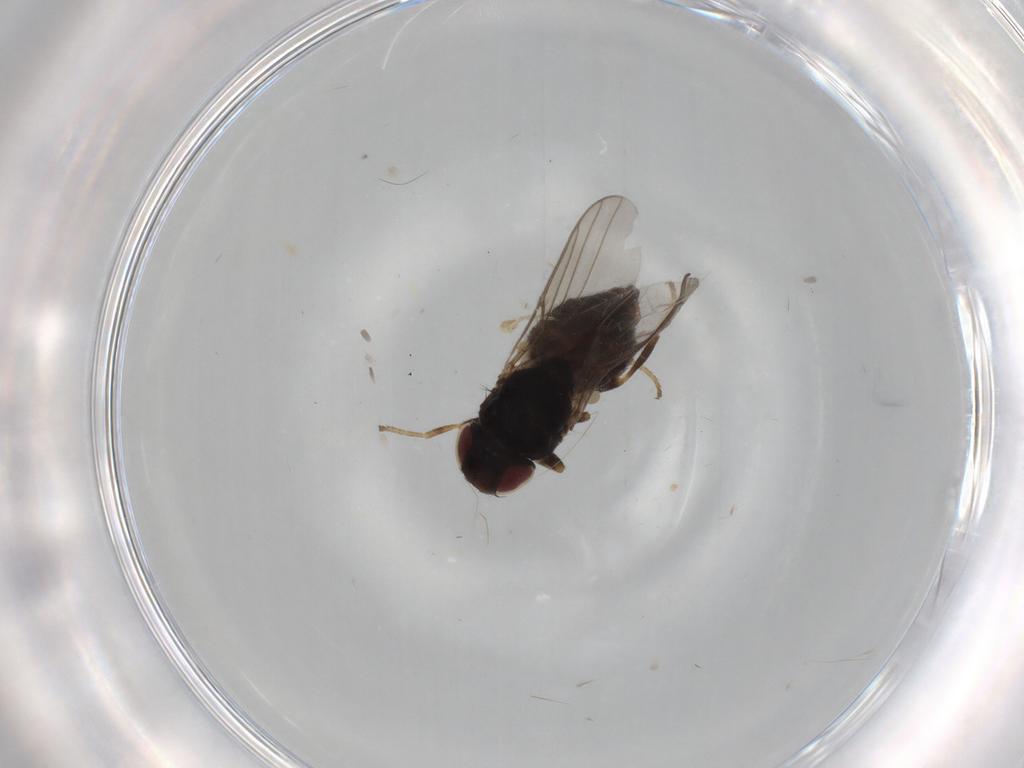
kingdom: Animalia
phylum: Arthropoda
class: Insecta
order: Diptera
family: Chloropidae
